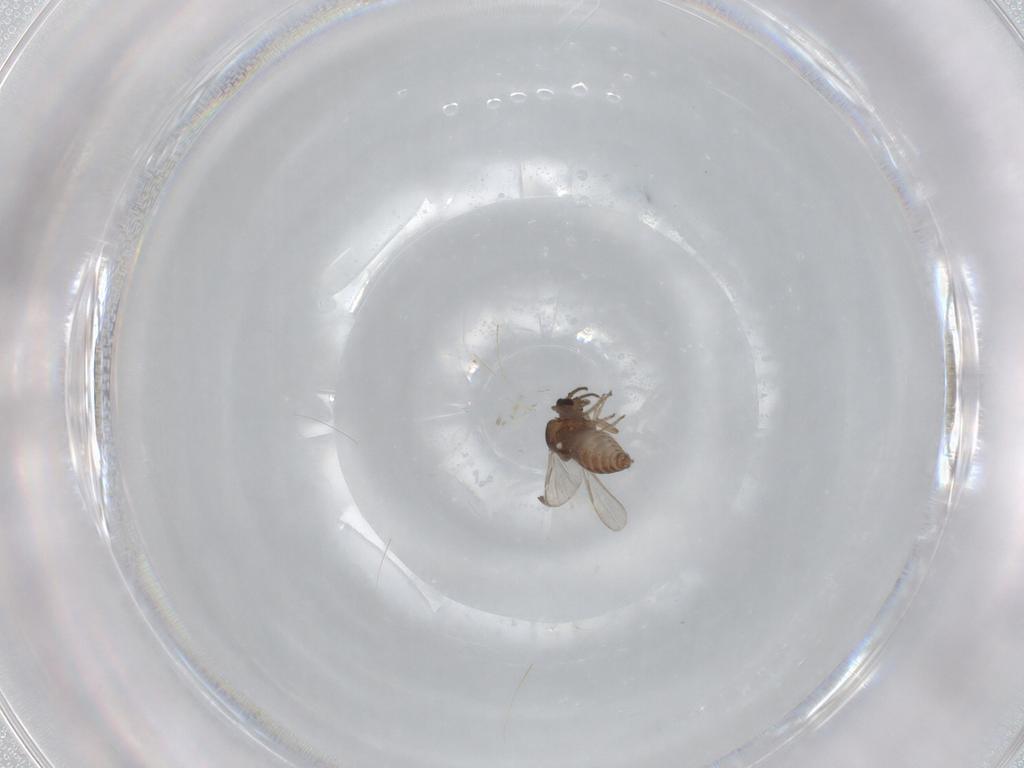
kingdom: Animalia
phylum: Arthropoda
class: Insecta
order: Diptera
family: Ceratopogonidae
